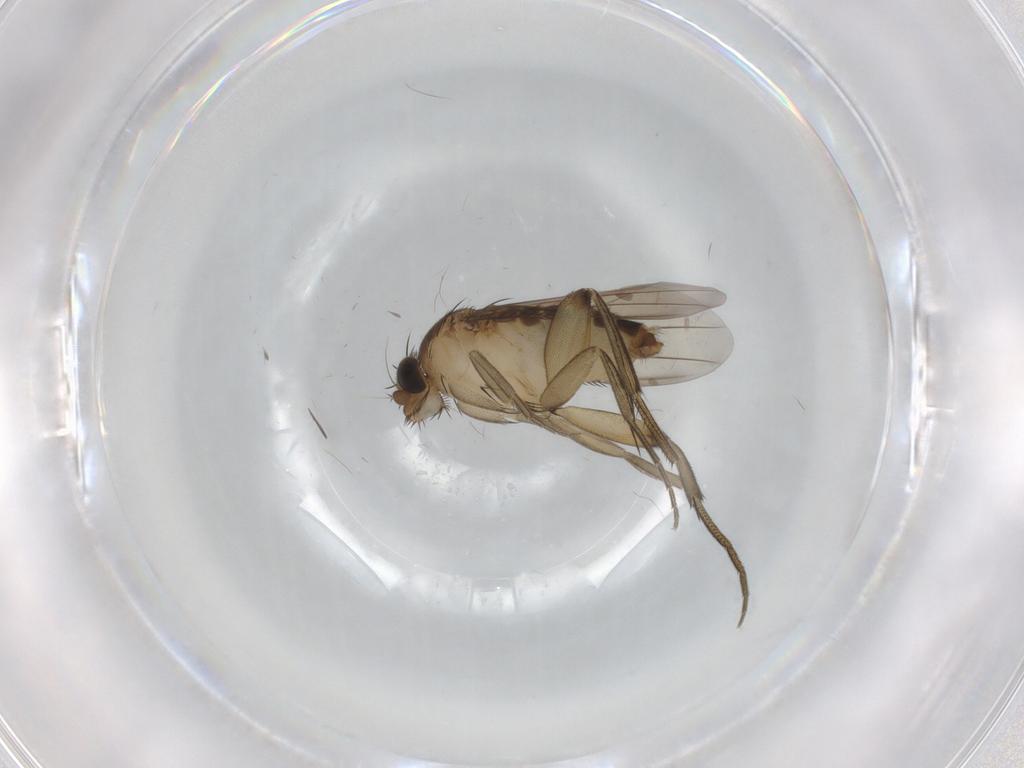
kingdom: Animalia
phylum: Arthropoda
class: Insecta
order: Diptera
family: Phoridae
